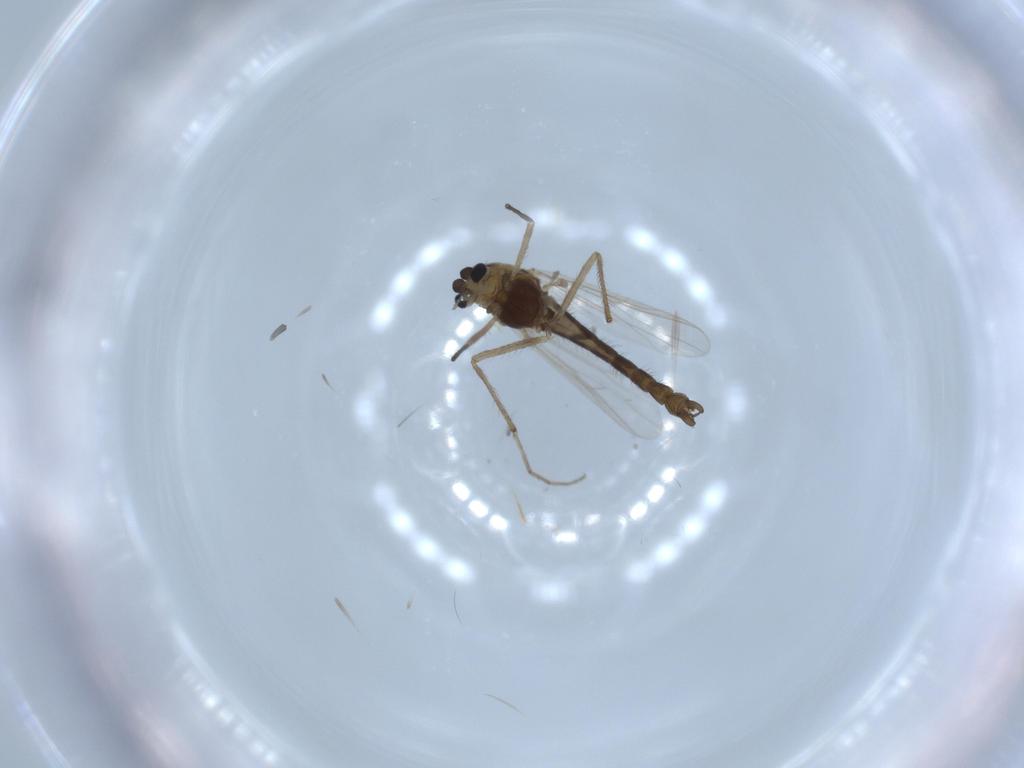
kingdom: Animalia
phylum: Arthropoda
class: Insecta
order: Diptera
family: Chironomidae
